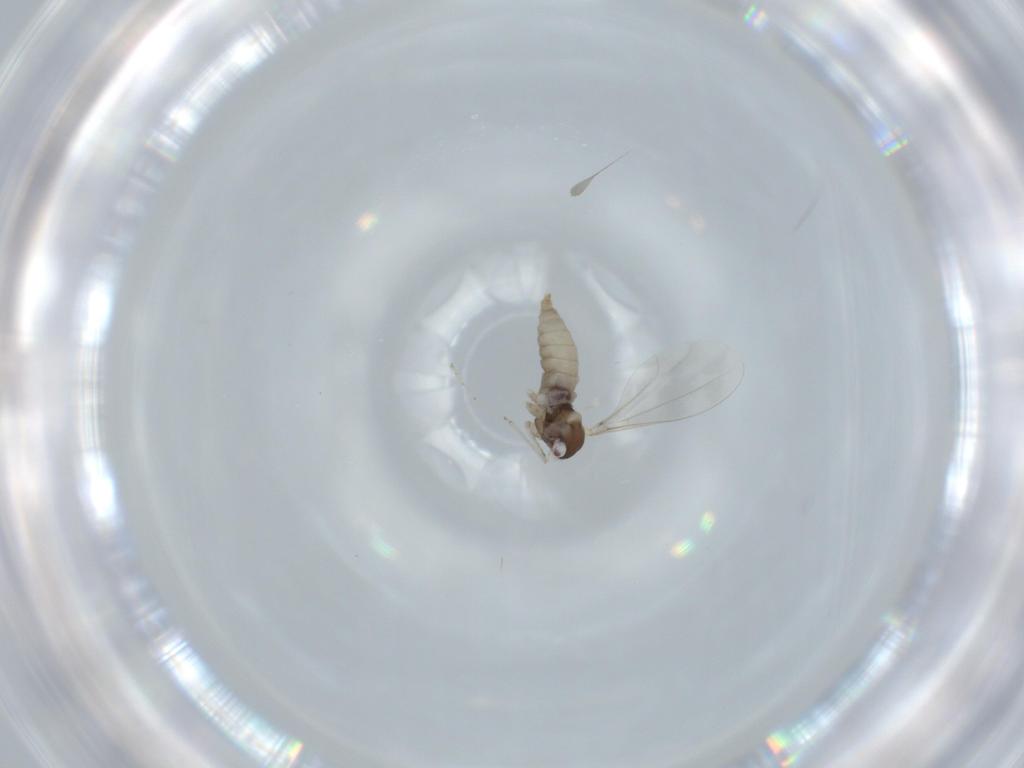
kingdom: Animalia
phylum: Arthropoda
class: Insecta
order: Diptera
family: Cecidomyiidae
